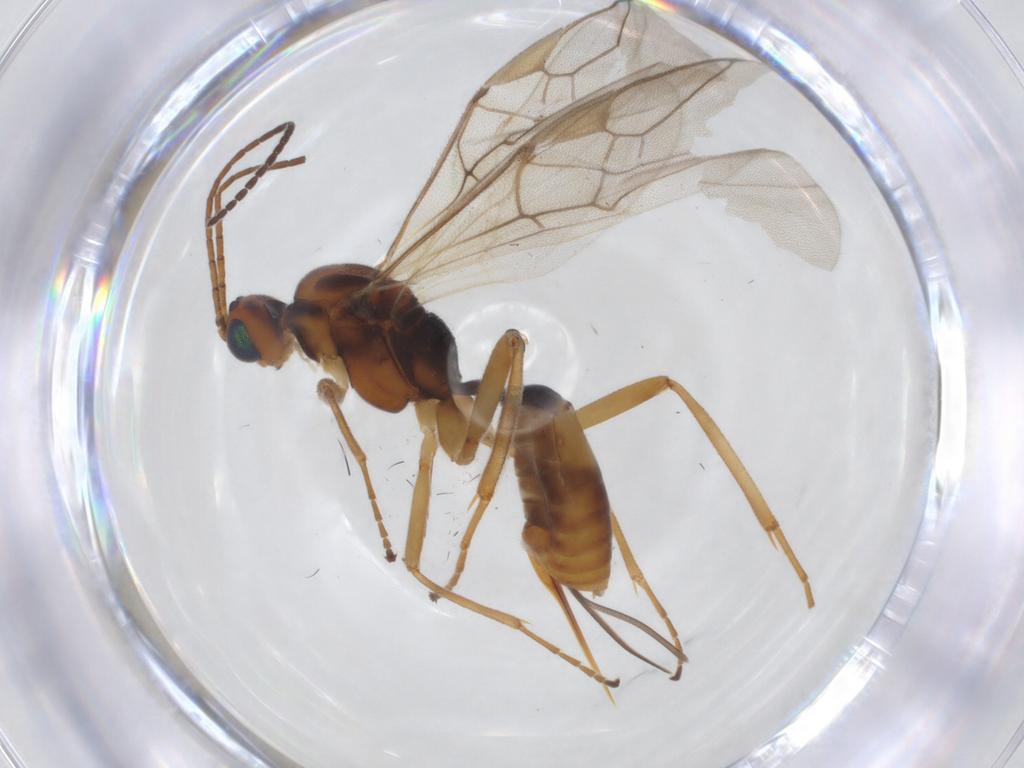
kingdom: Animalia
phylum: Arthropoda
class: Insecta
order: Hymenoptera
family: Braconidae
